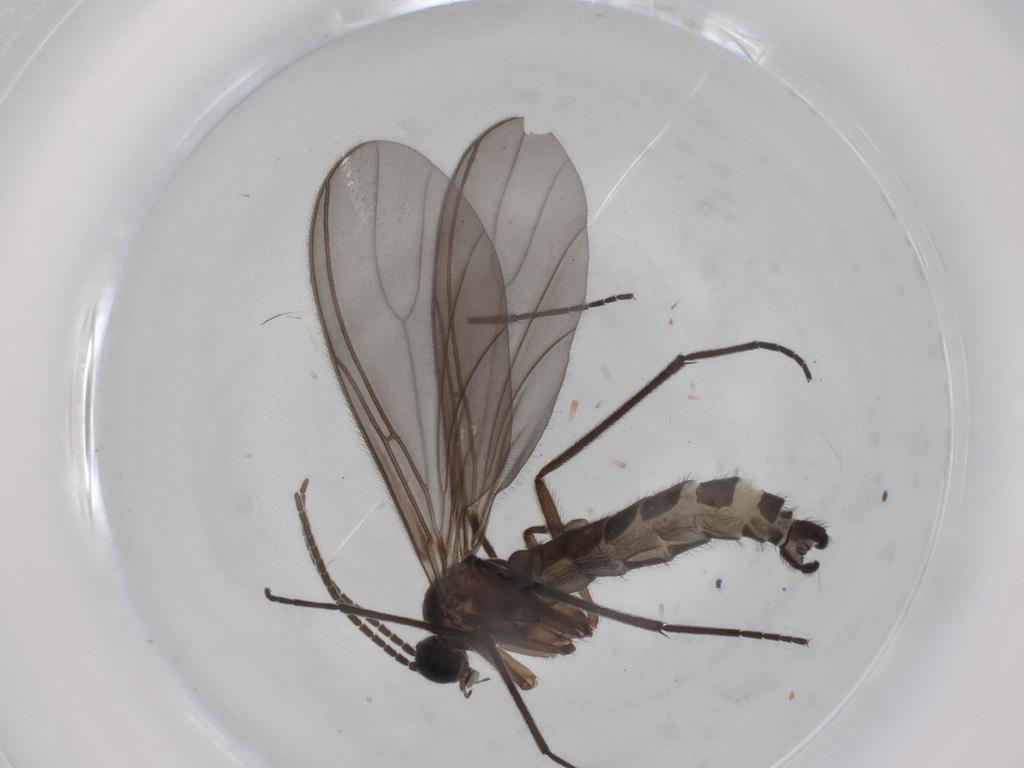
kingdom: Animalia
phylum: Arthropoda
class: Insecta
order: Diptera
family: Sciaridae
